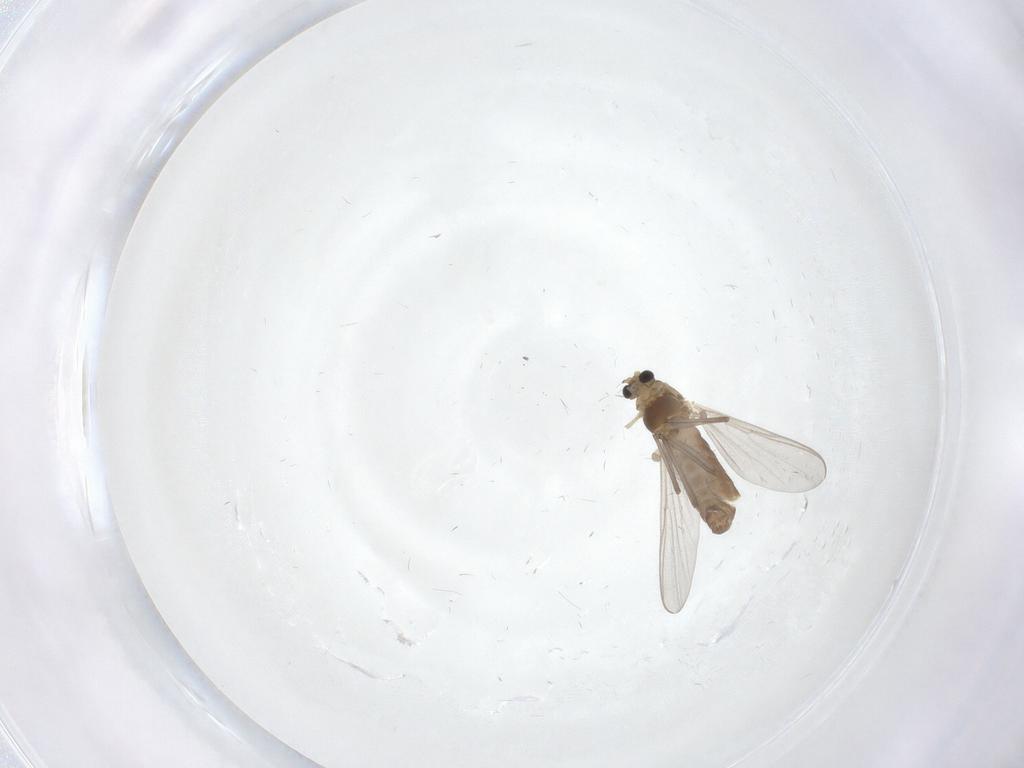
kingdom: Animalia
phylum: Arthropoda
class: Insecta
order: Diptera
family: Chironomidae
